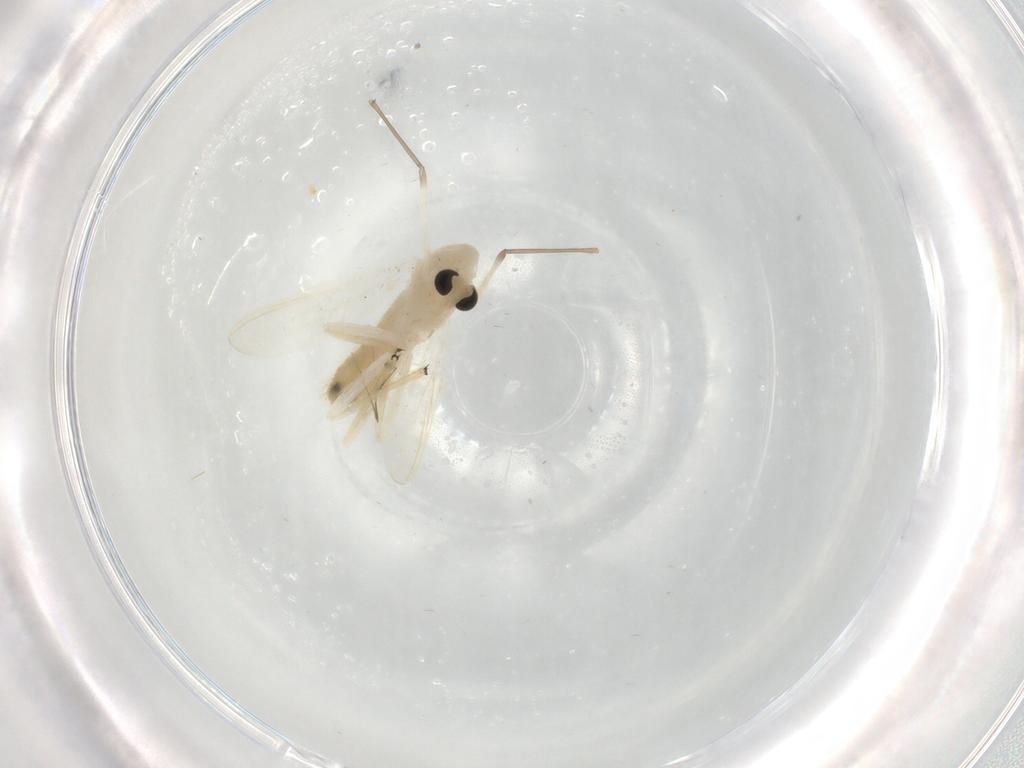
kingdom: Animalia
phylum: Arthropoda
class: Insecta
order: Diptera
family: Chironomidae
